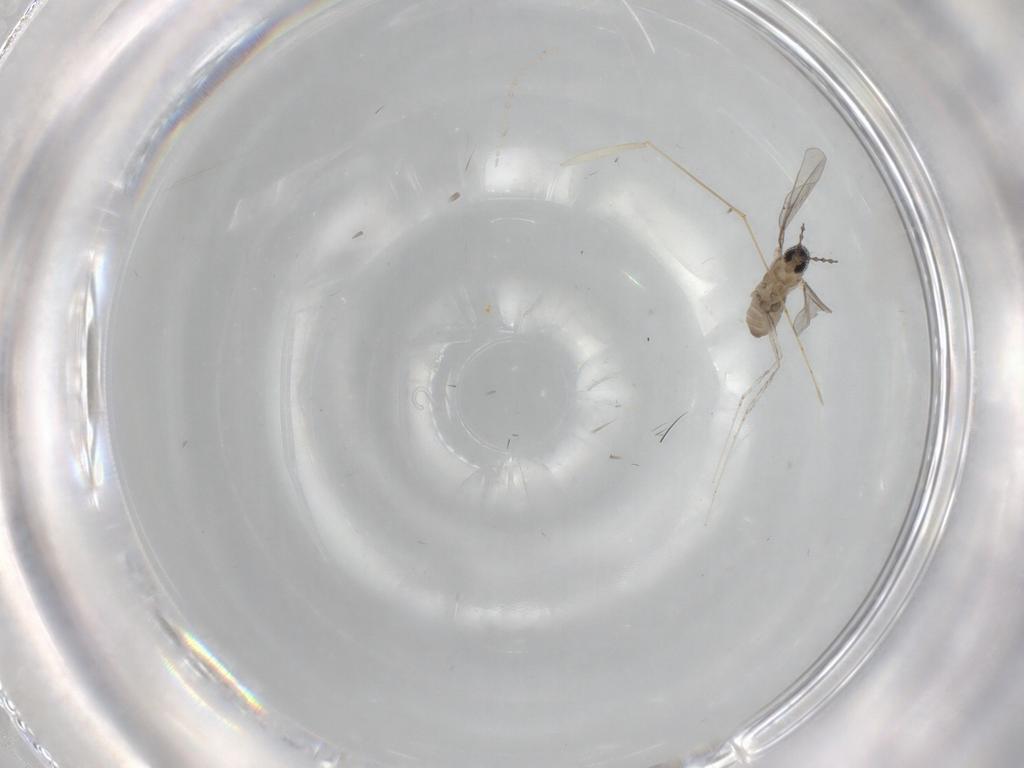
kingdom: Animalia
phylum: Arthropoda
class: Insecta
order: Diptera
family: Cecidomyiidae
